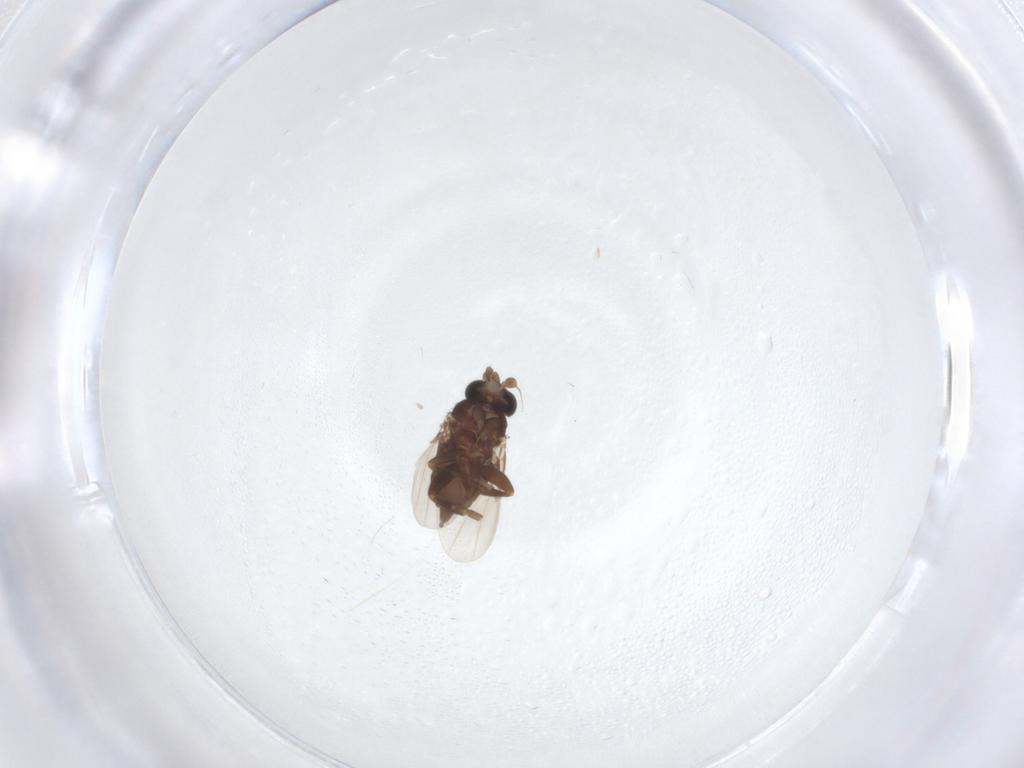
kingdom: Animalia
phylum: Arthropoda
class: Insecta
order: Diptera
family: Phoridae
